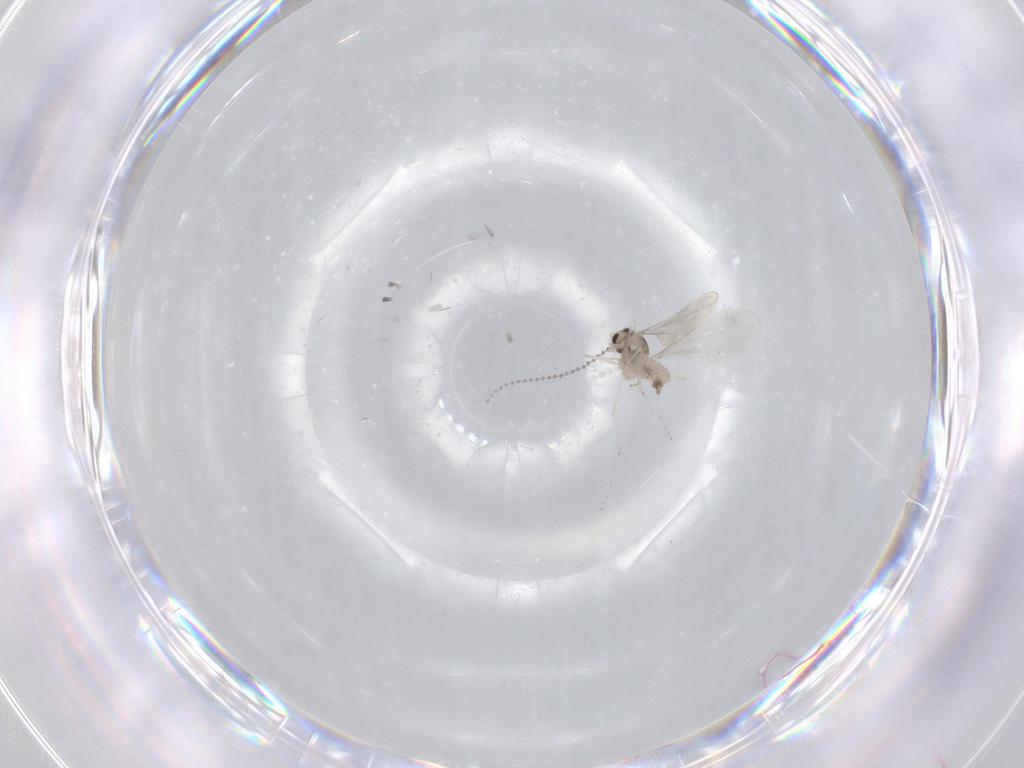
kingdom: Animalia
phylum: Arthropoda
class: Insecta
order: Diptera
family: Cecidomyiidae
